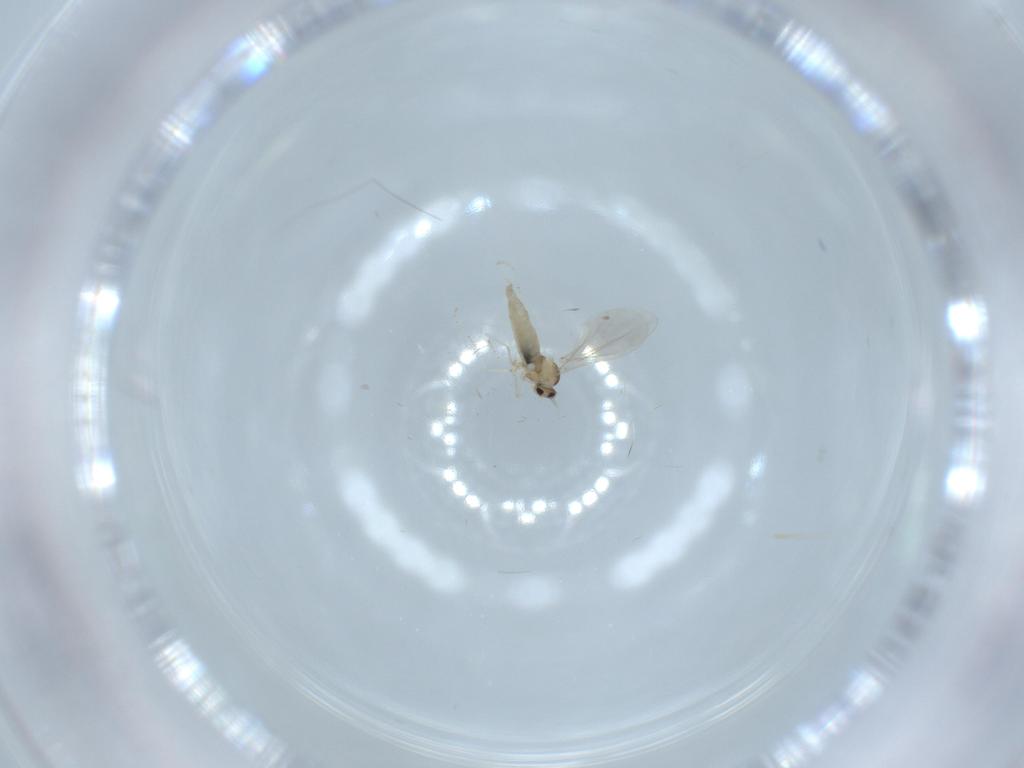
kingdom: Animalia
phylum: Arthropoda
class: Insecta
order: Diptera
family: Cecidomyiidae
